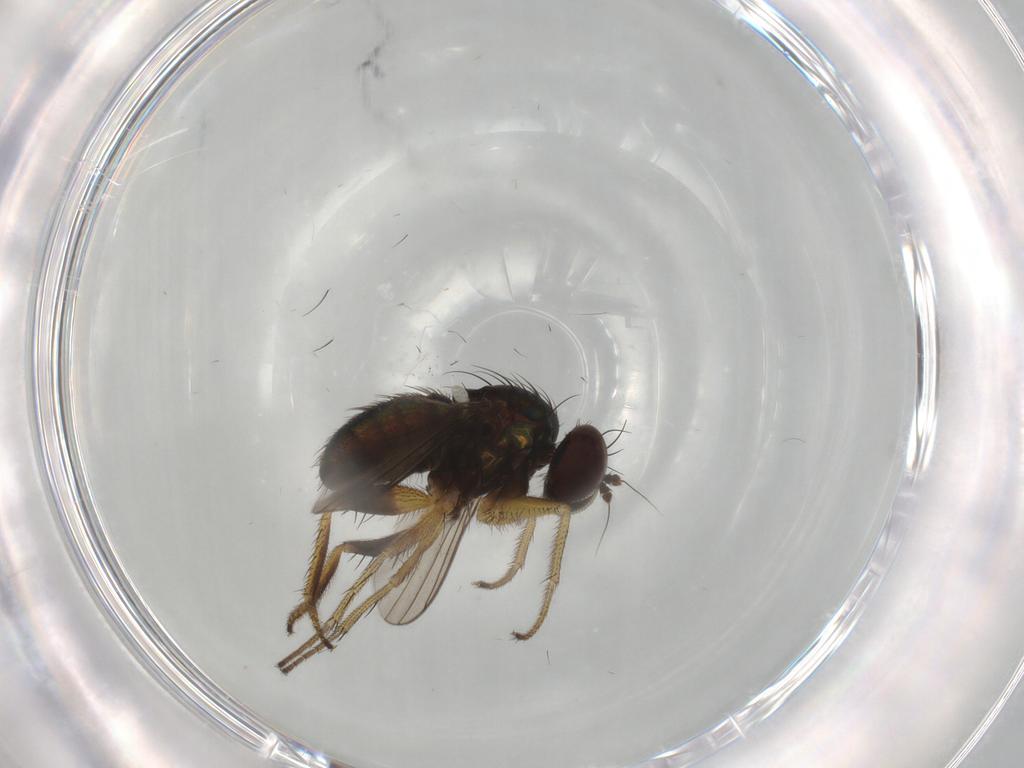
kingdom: Animalia
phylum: Arthropoda
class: Insecta
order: Diptera
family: Dolichopodidae
